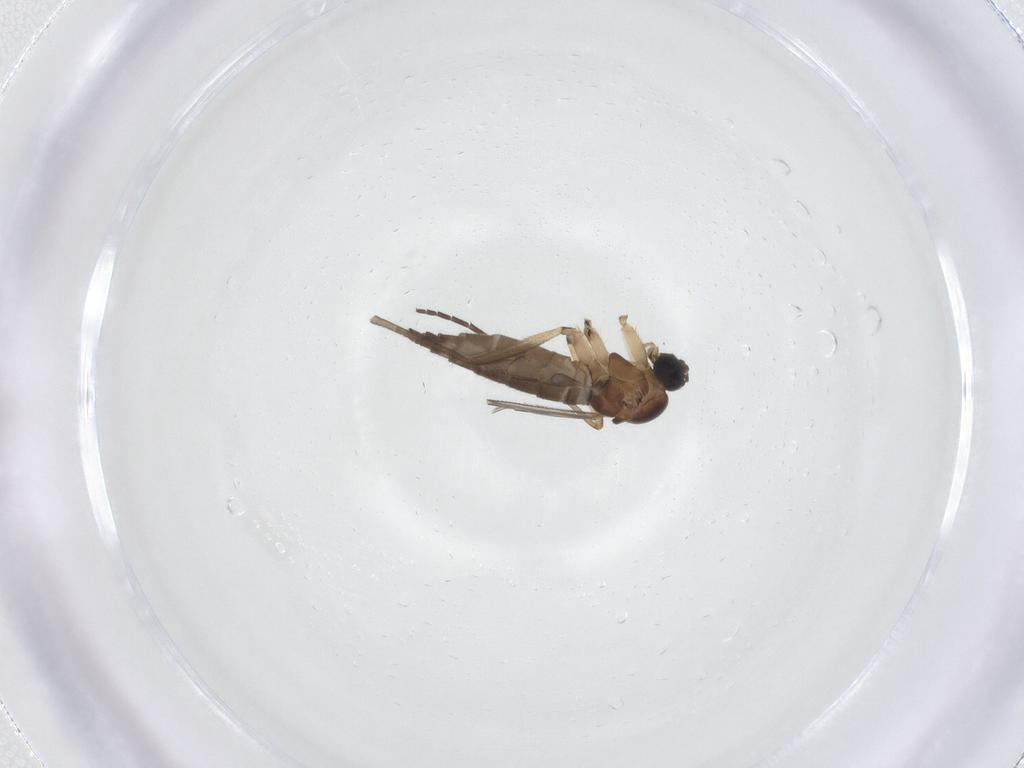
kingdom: Animalia
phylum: Arthropoda
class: Insecta
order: Diptera
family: Sciaridae
